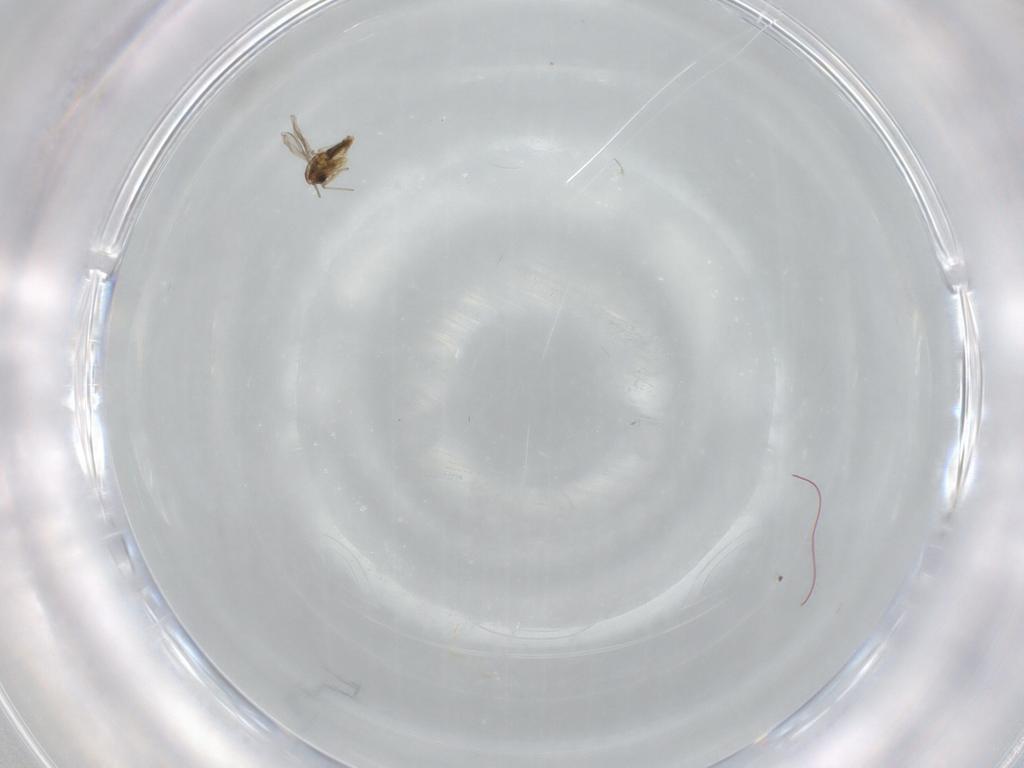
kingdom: Animalia
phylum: Arthropoda
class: Insecta
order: Diptera
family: Chironomidae
